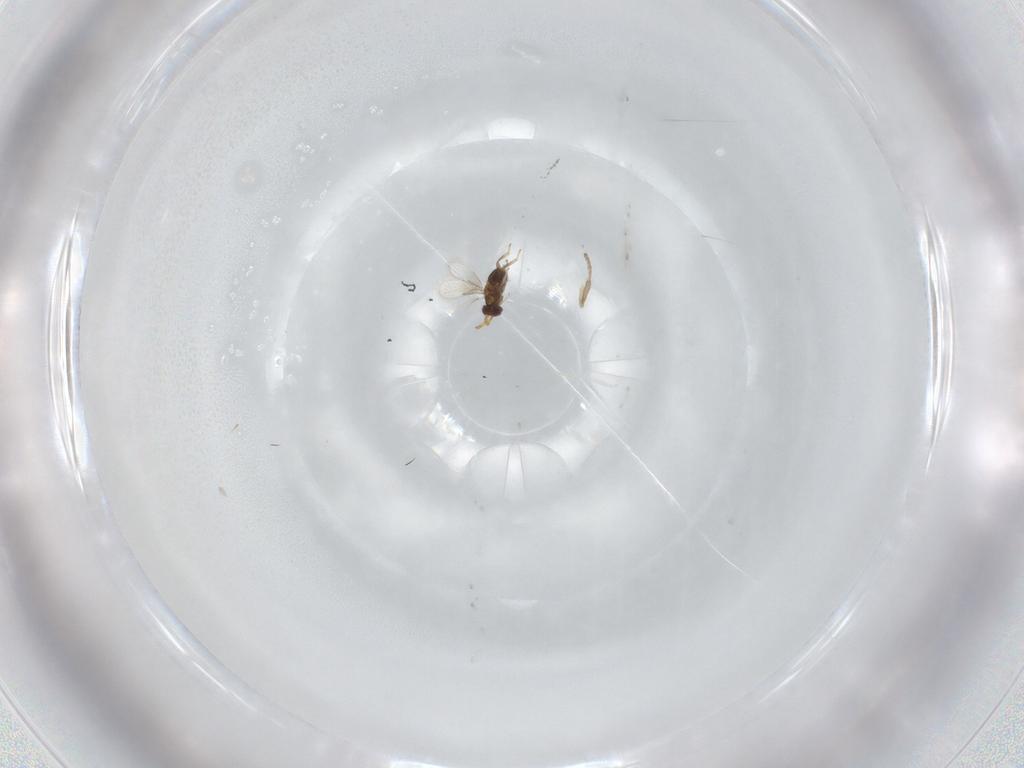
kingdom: Animalia
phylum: Arthropoda
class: Insecta
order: Hymenoptera
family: Aphelinidae
